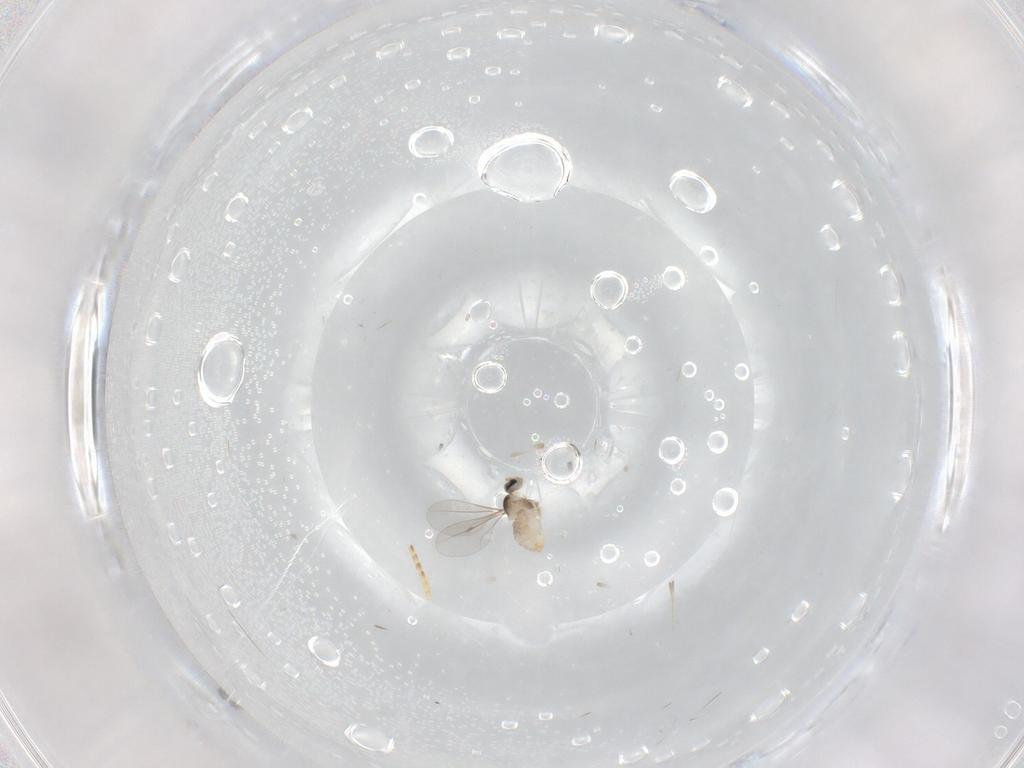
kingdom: Animalia
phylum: Arthropoda
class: Insecta
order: Diptera
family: Cecidomyiidae
